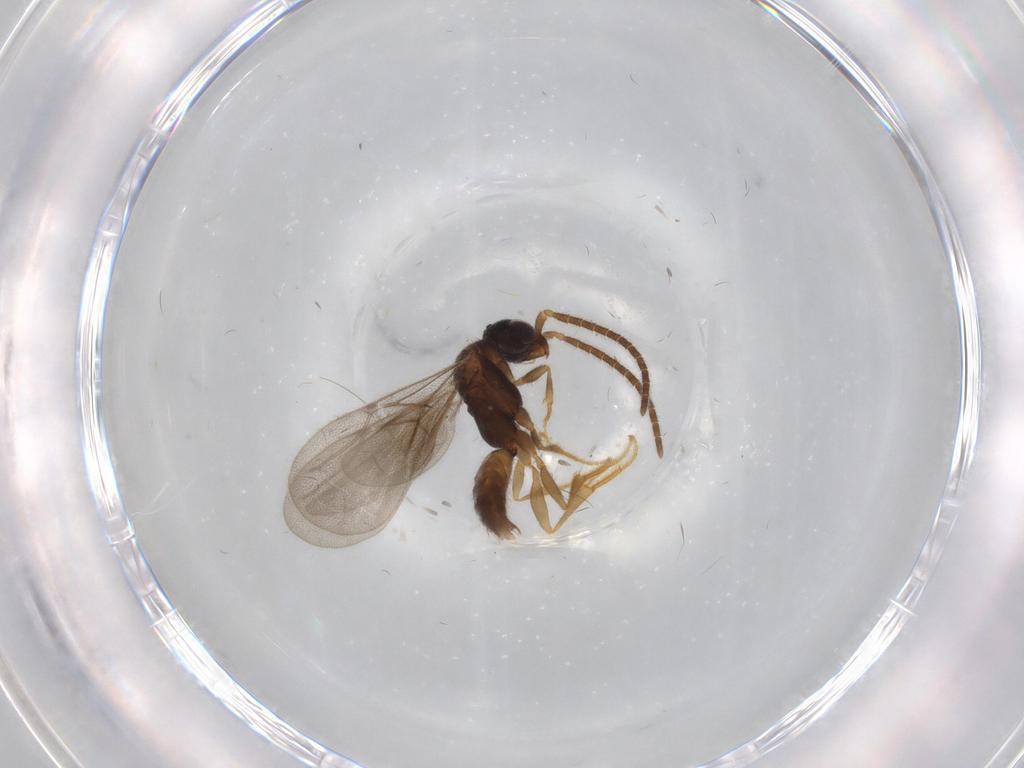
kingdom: Animalia
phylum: Arthropoda
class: Insecta
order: Hymenoptera
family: Bethylidae
